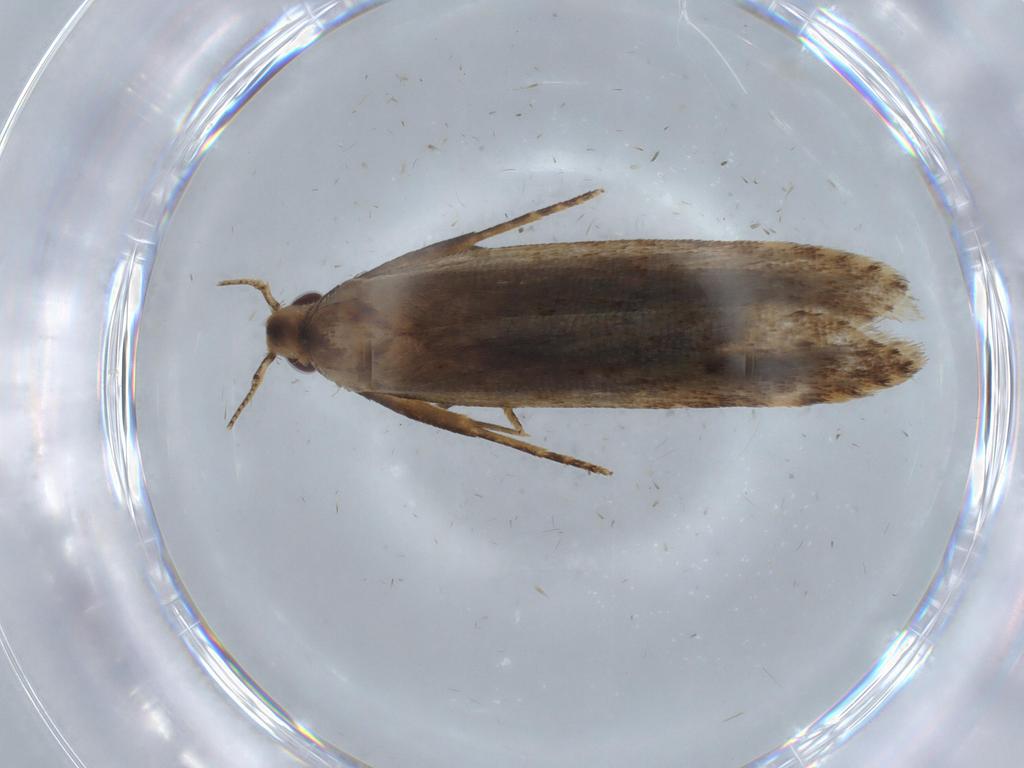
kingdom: Animalia
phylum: Arthropoda
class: Insecta
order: Lepidoptera
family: Gelechiidae
